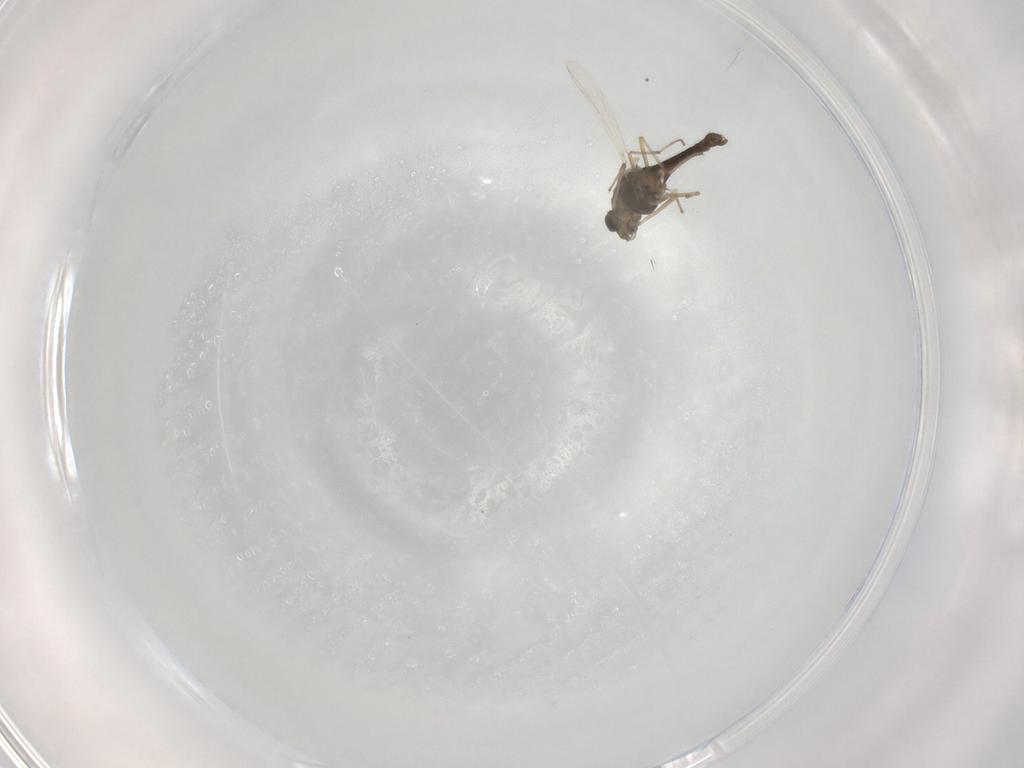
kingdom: Animalia
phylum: Arthropoda
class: Insecta
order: Diptera
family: Cecidomyiidae
